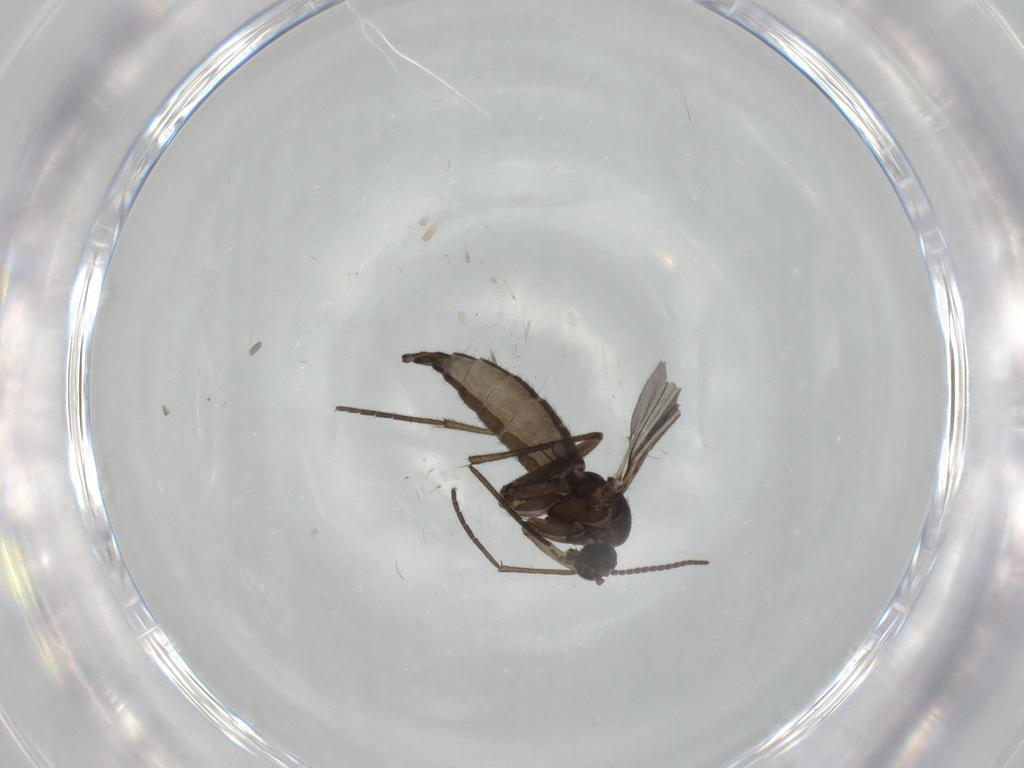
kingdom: Animalia
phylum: Arthropoda
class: Insecta
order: Diptera
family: Sciaridae
